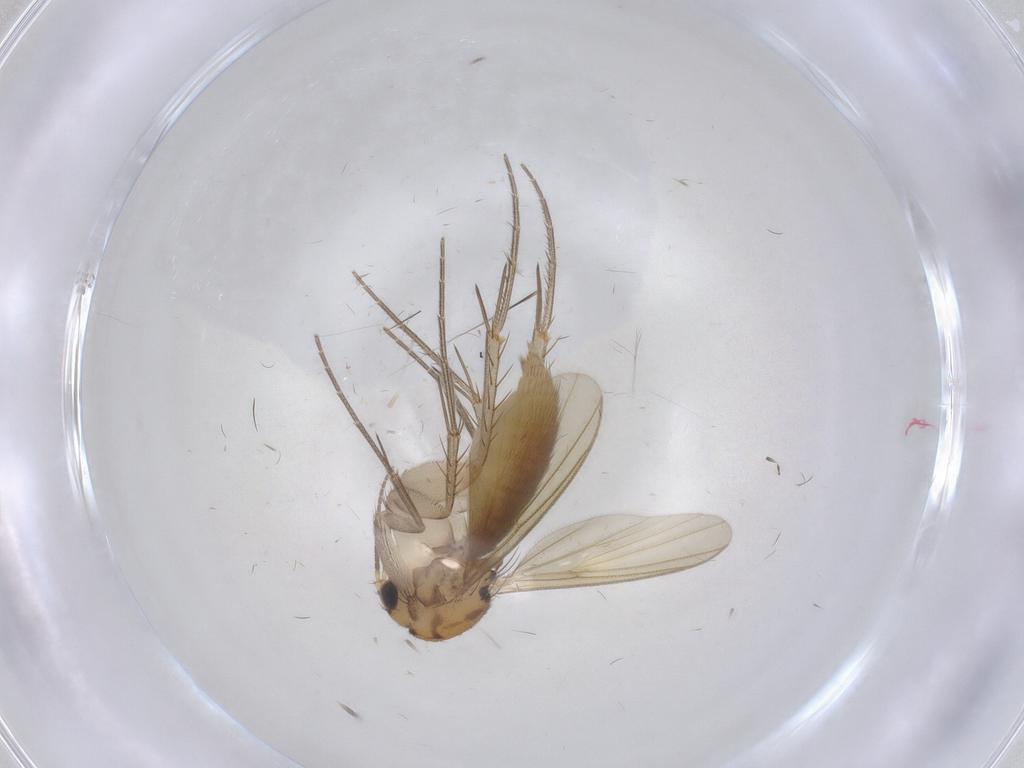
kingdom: Animalia
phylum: Arthropoda
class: Insecta
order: Diptera
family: Mycetophilidae
